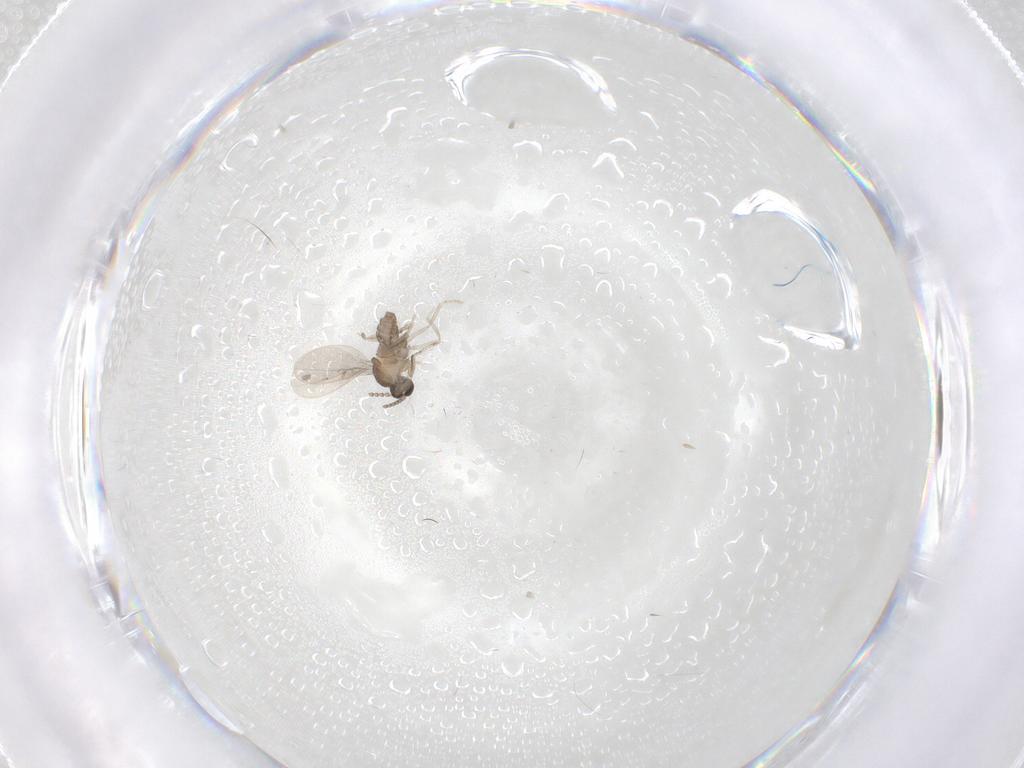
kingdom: Animalia
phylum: Arthropoda
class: Insecta
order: Diptera
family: Cecidomyiidae
